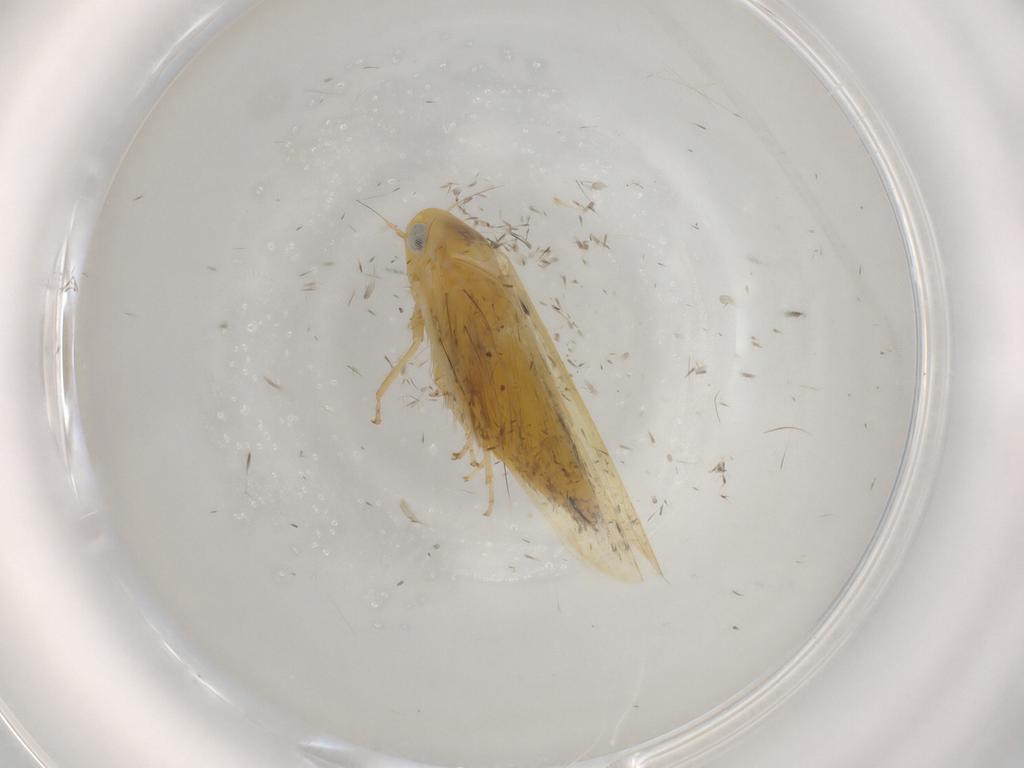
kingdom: Animalia
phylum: Arthropoda
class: Insecta
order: Hemiptera
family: Cicadellidae
